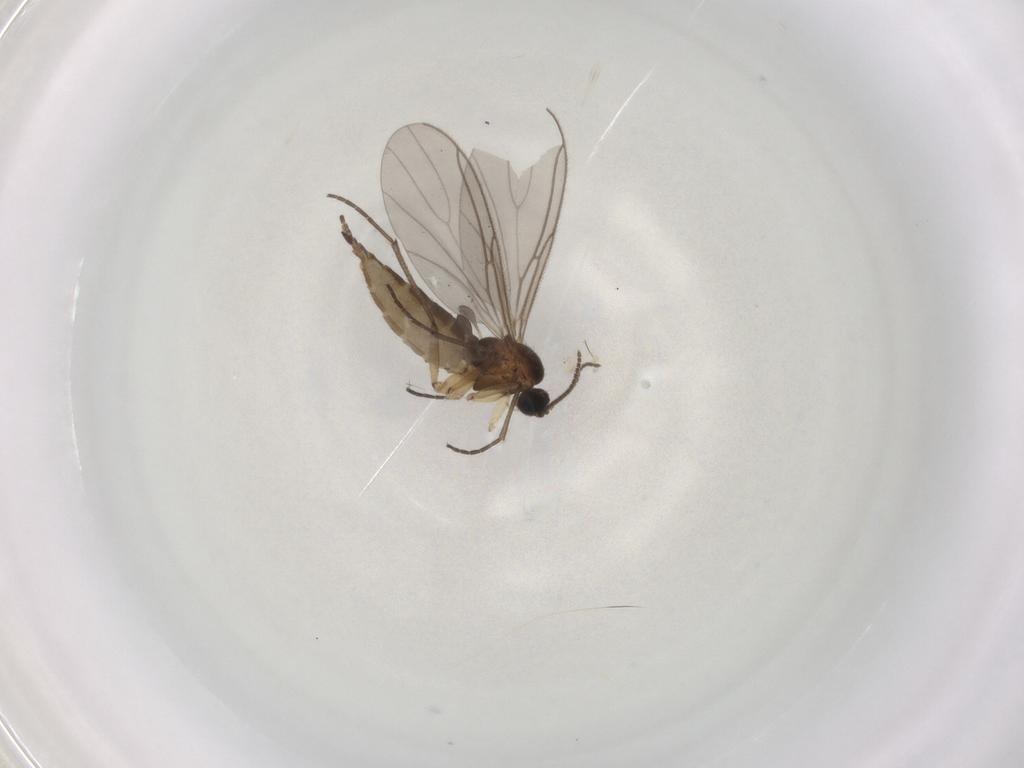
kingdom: Animalia
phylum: Arthropoda
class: Insecta
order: Diptera
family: Sciaridae
